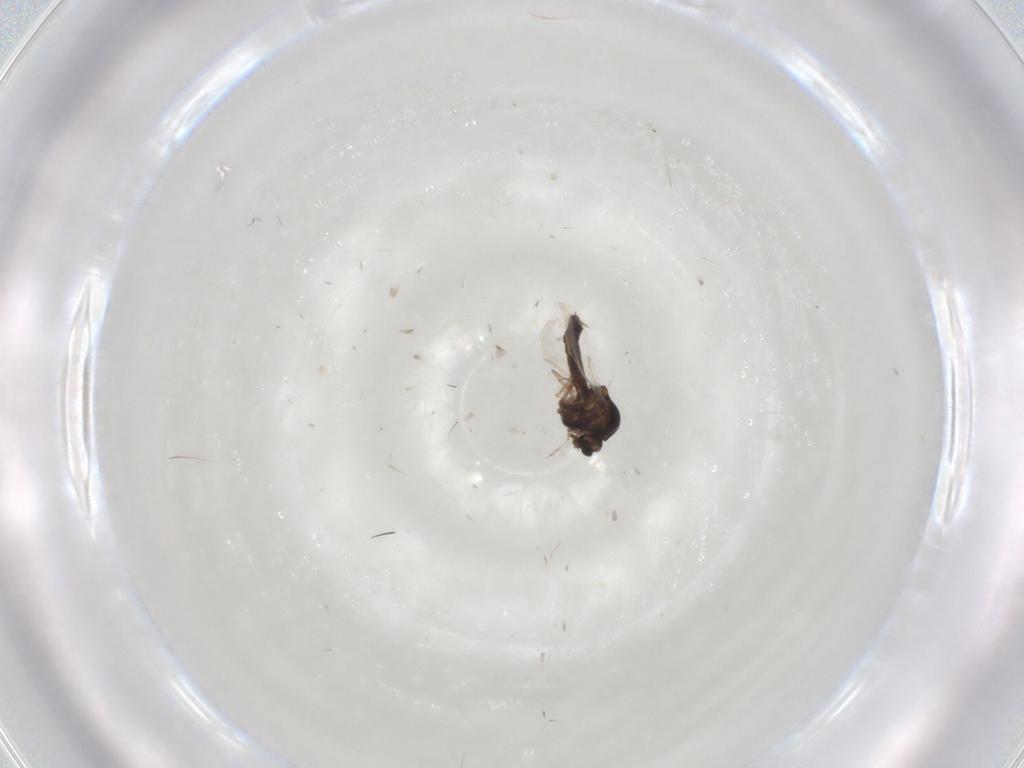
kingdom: Animalia
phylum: Arthropoda
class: Insecta
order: Diptera
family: Ceratopogonidae
